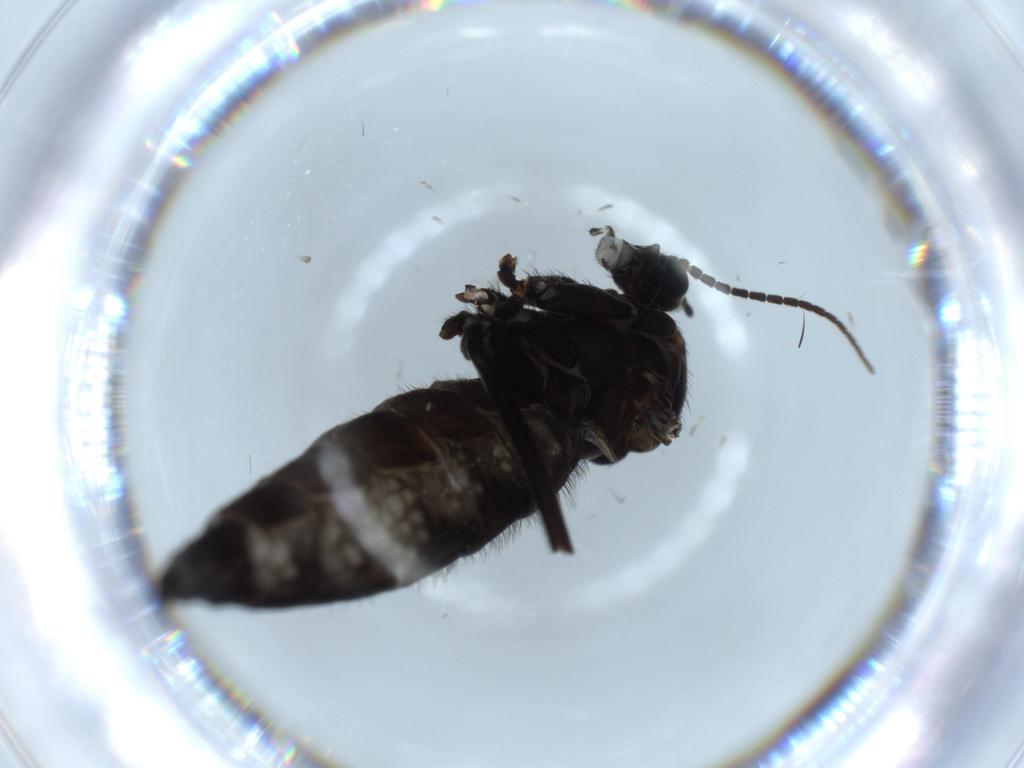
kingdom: Animalia
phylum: Arthropoda
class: Insecta
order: Diptera
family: Sciaridae
